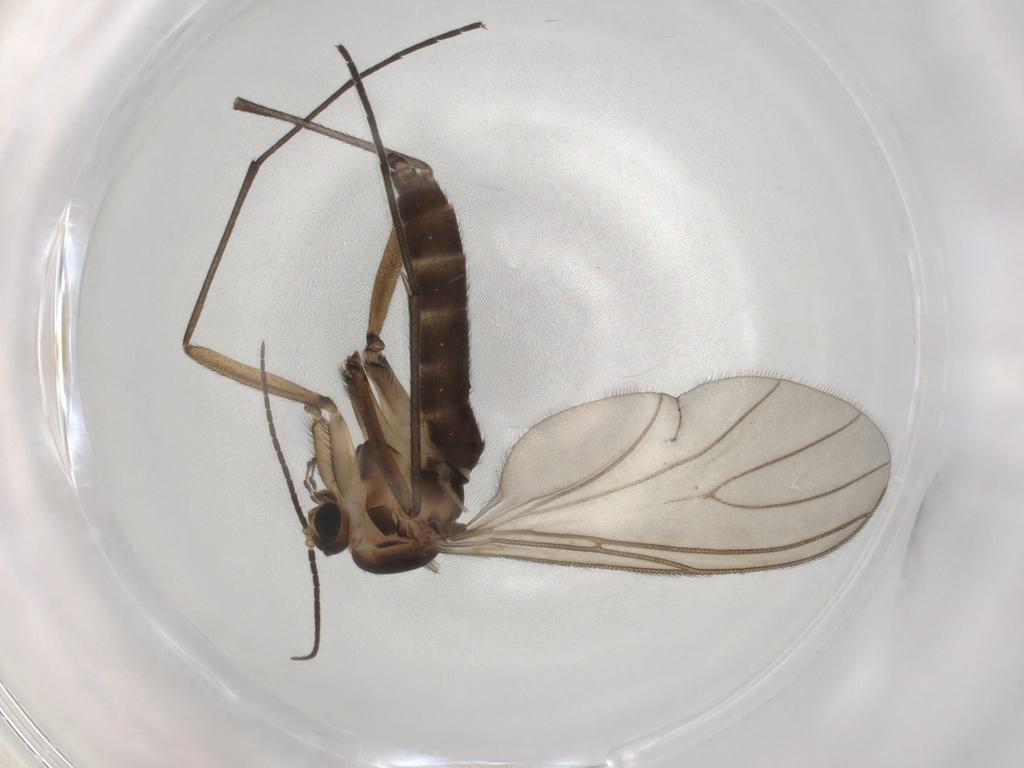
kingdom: Animalia
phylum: Arthropoda
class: Insecta
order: Diptera
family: Sciaridae
